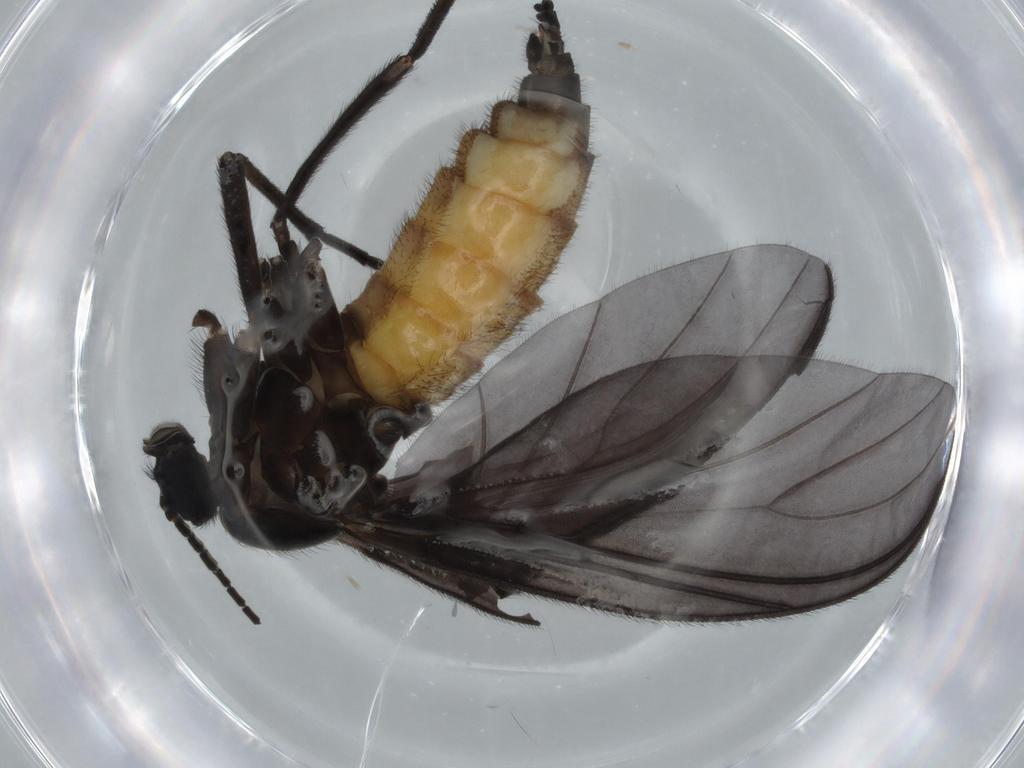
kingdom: Animalia
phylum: Arthropoda
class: Insecta
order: Diptera
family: Sciaridae
